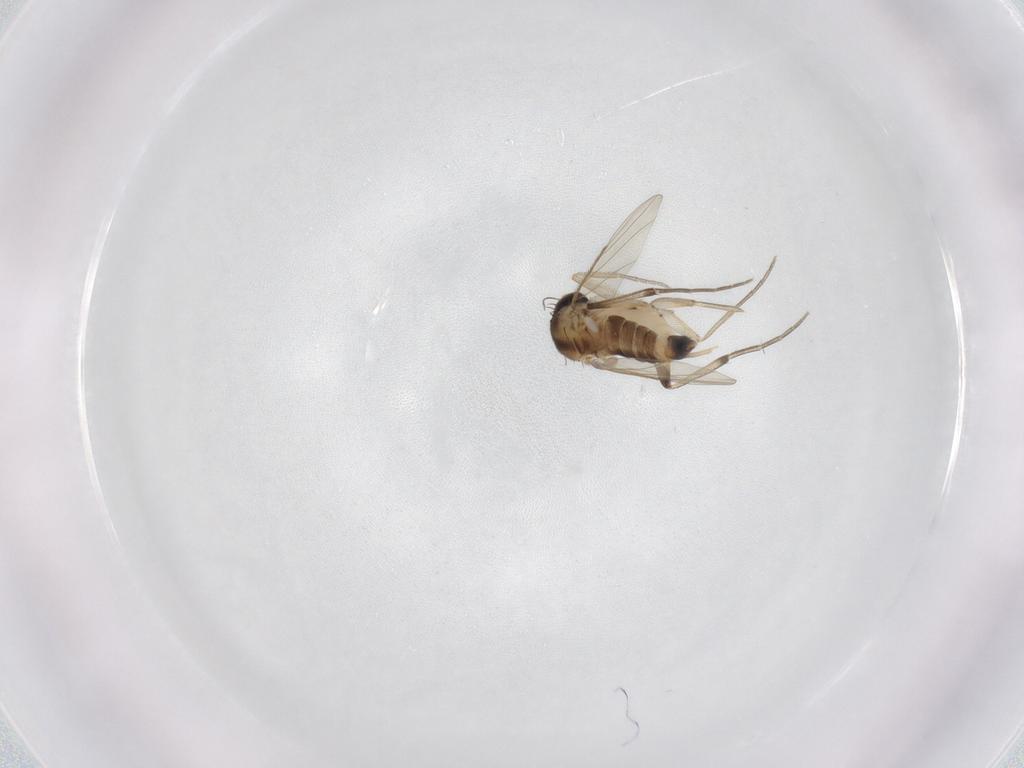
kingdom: Animalia
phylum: Arthropoda
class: Insecta
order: Diptera
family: Phoridae
